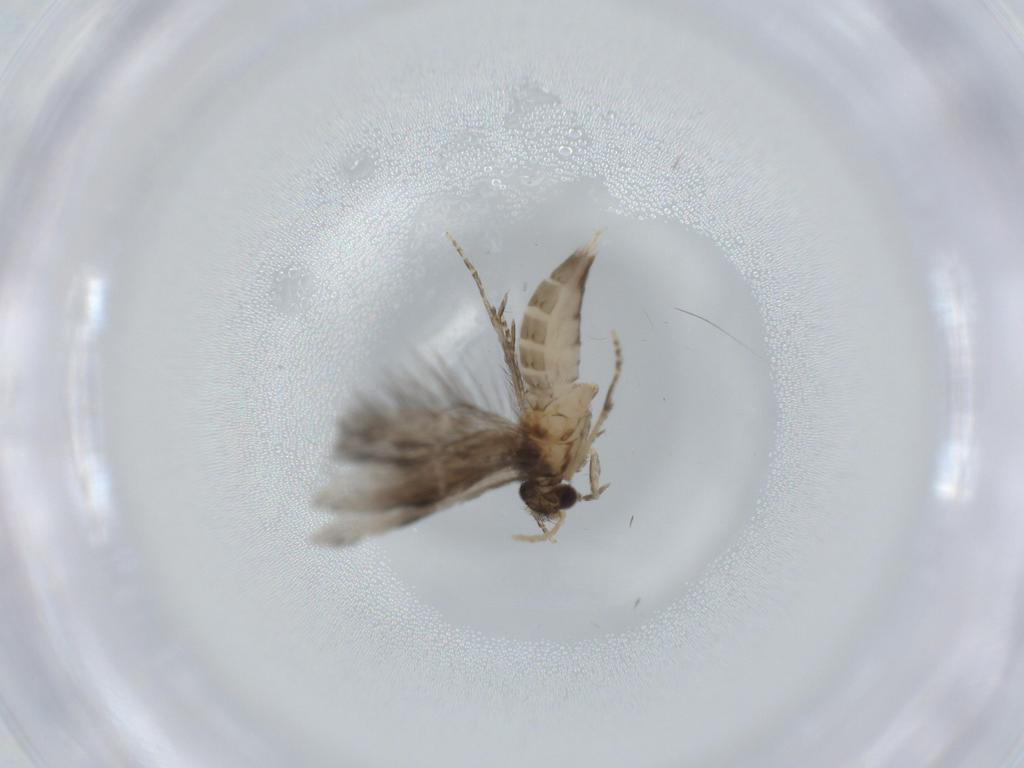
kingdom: Animalia
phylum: Arthropoda
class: Insecta
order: Trichoptera
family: Hydroptilidae
